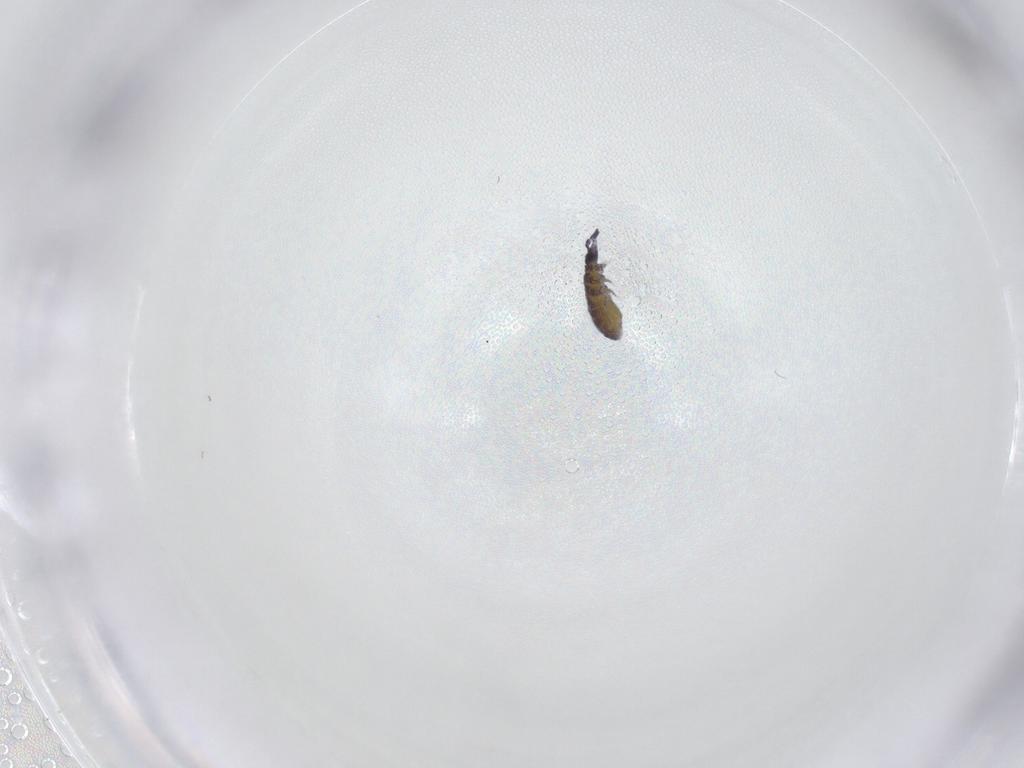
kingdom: Animalia
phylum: Arthropoda
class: Collembola
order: Poduromorpha
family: Neanuridae
